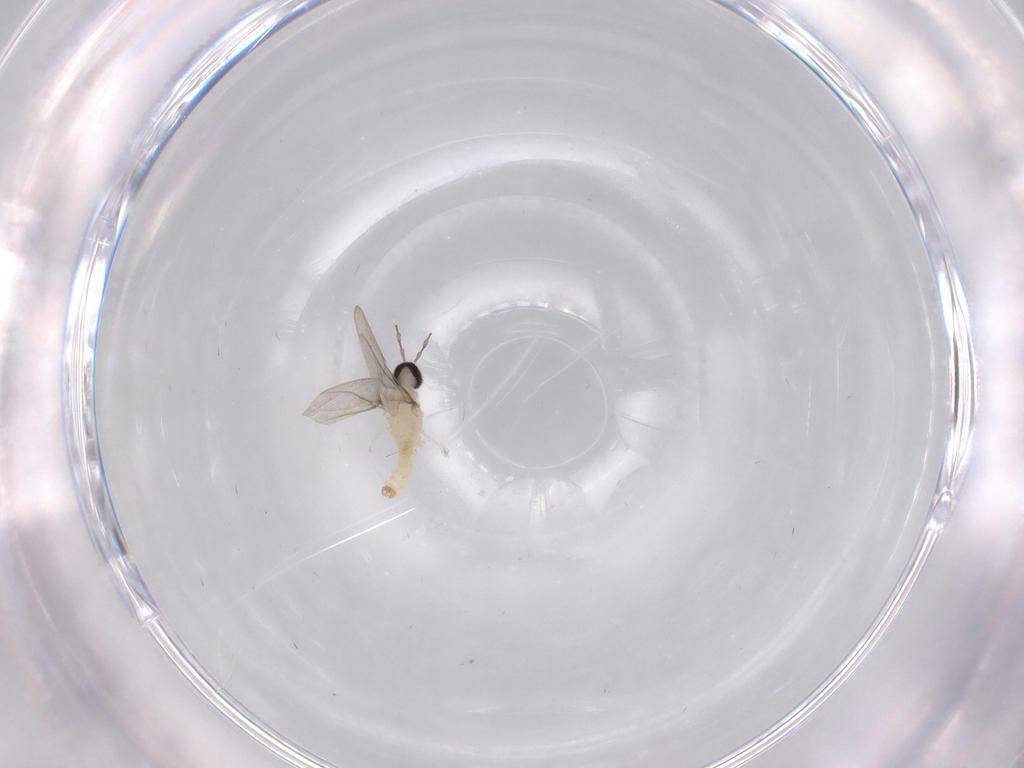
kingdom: Animalia
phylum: Arthropoda
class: Insecta
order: Diptera
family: Cecidomyiidae
